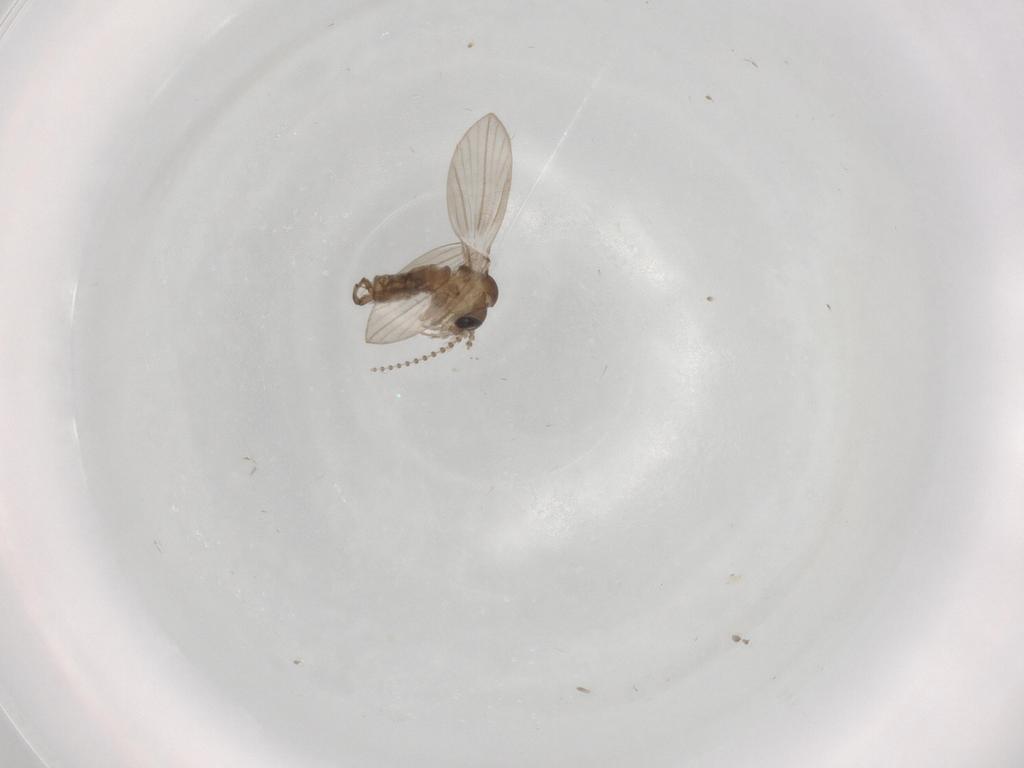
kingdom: Animalia
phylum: Arthropoda
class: Insecta
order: Diptera
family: Psychodidae
